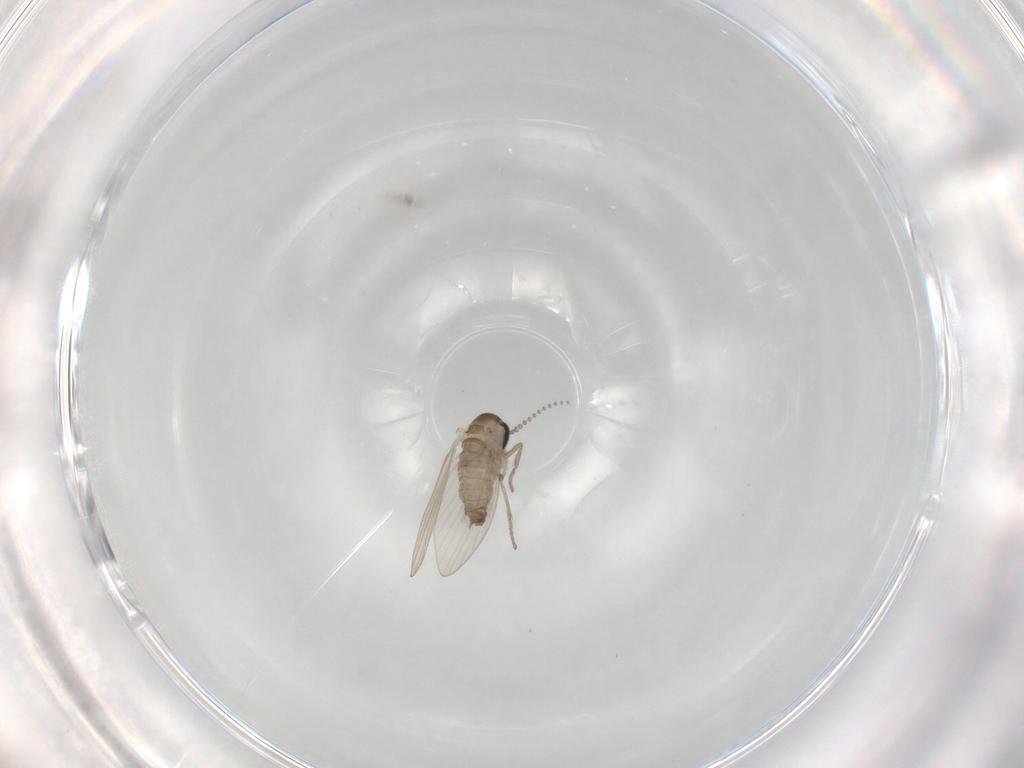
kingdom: Animalia
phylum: Arthropoda
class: Insecta
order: Diptera
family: Psychodidae
